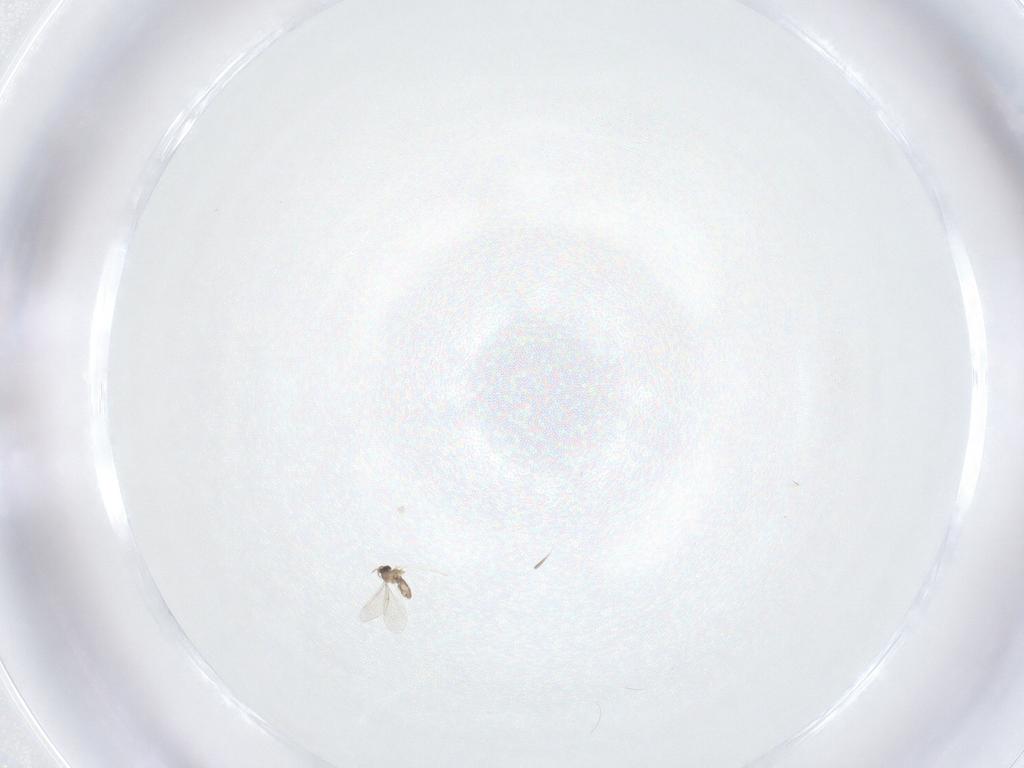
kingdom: Animalia
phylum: Arthropoda
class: Insecta
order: Diptera
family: Cecidomyiidae
